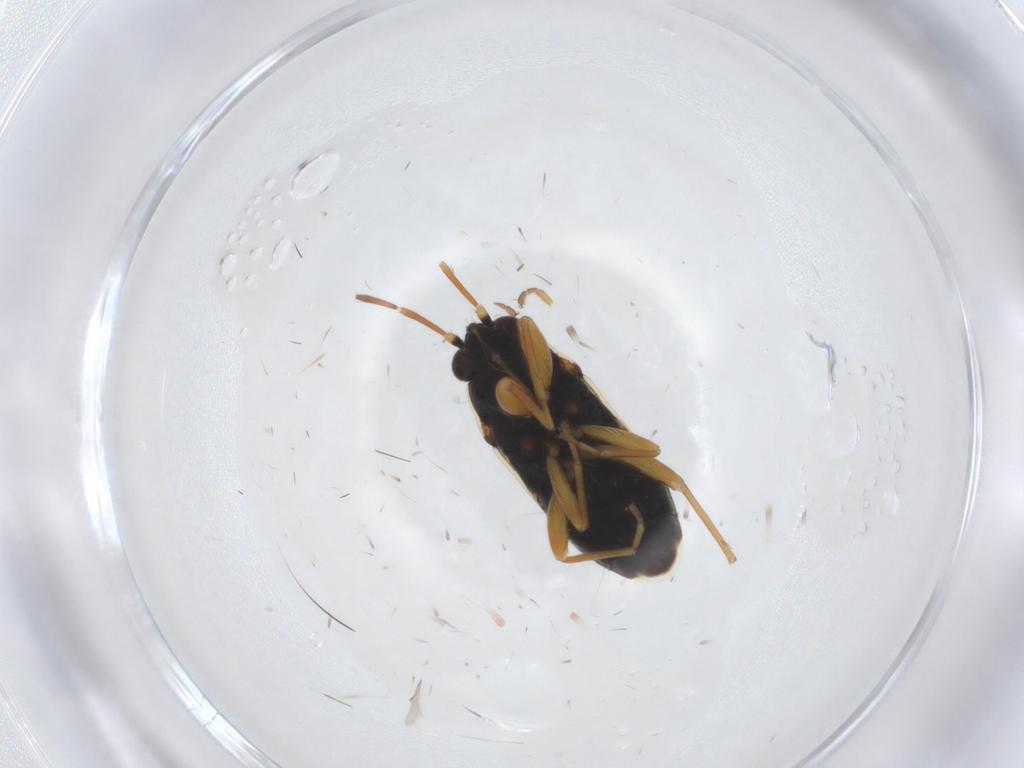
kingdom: Animalia
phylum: Arthropoda
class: Insecta
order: Hemiptera
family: Rhyparochromidae
